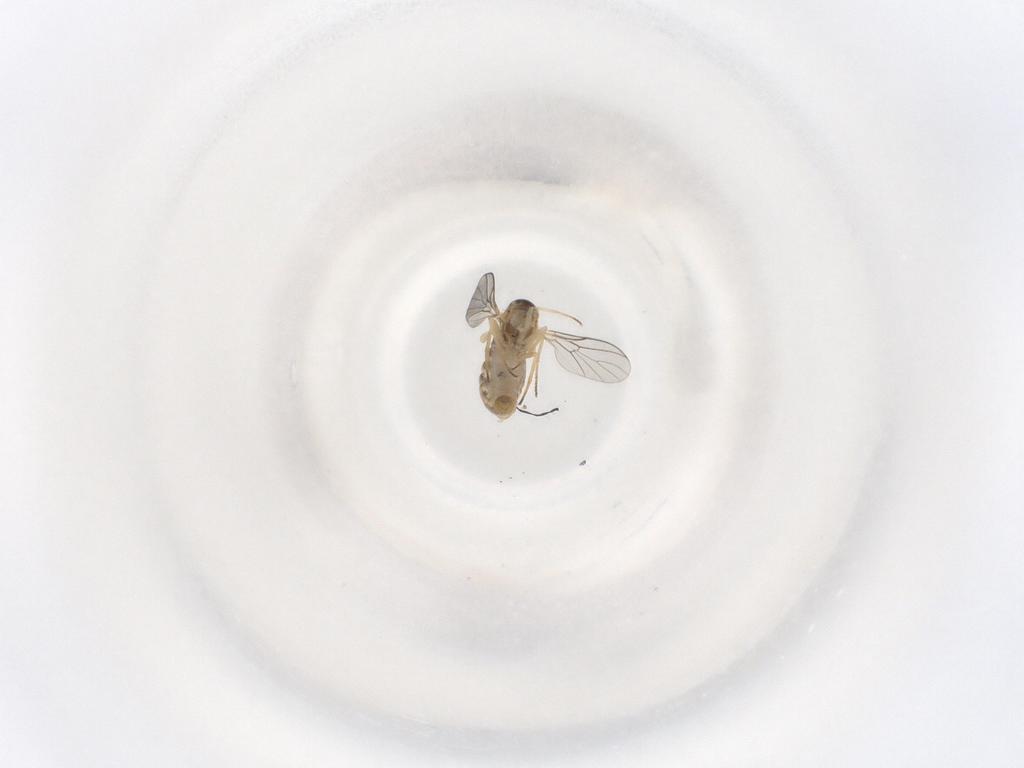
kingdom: Animalia
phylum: Arthropoda
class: Insecta
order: Diptera
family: Chloropidae
